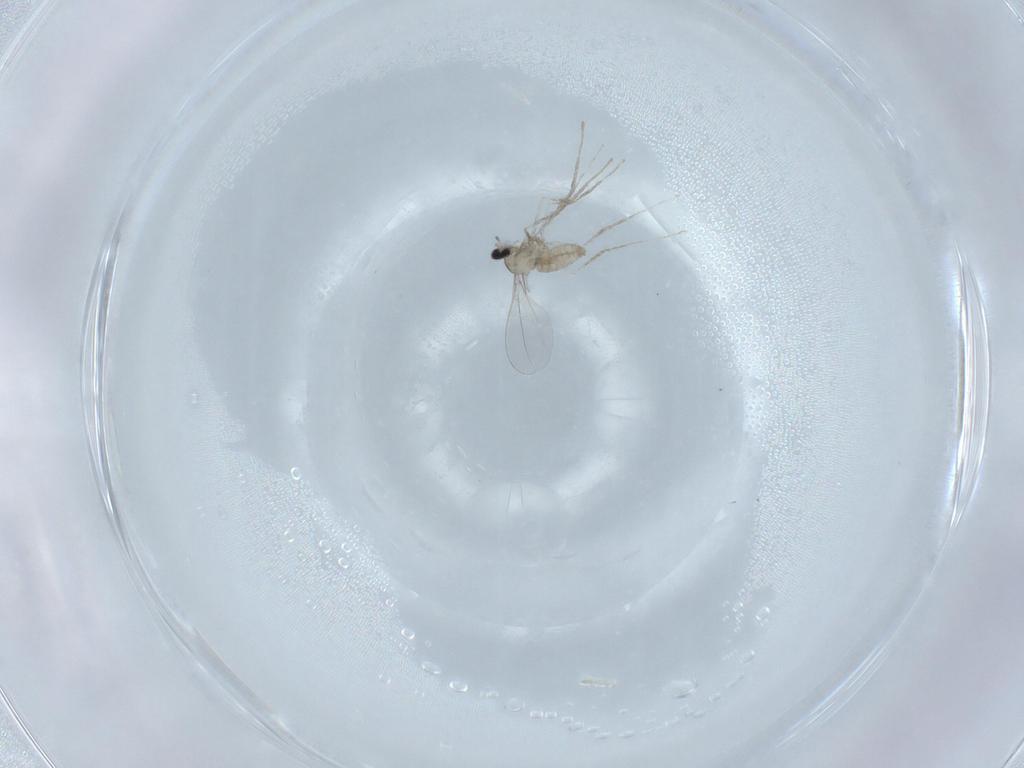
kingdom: Animalia
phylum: Arthropoda
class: Insecta
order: Diptera
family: Cecidomyiidae
